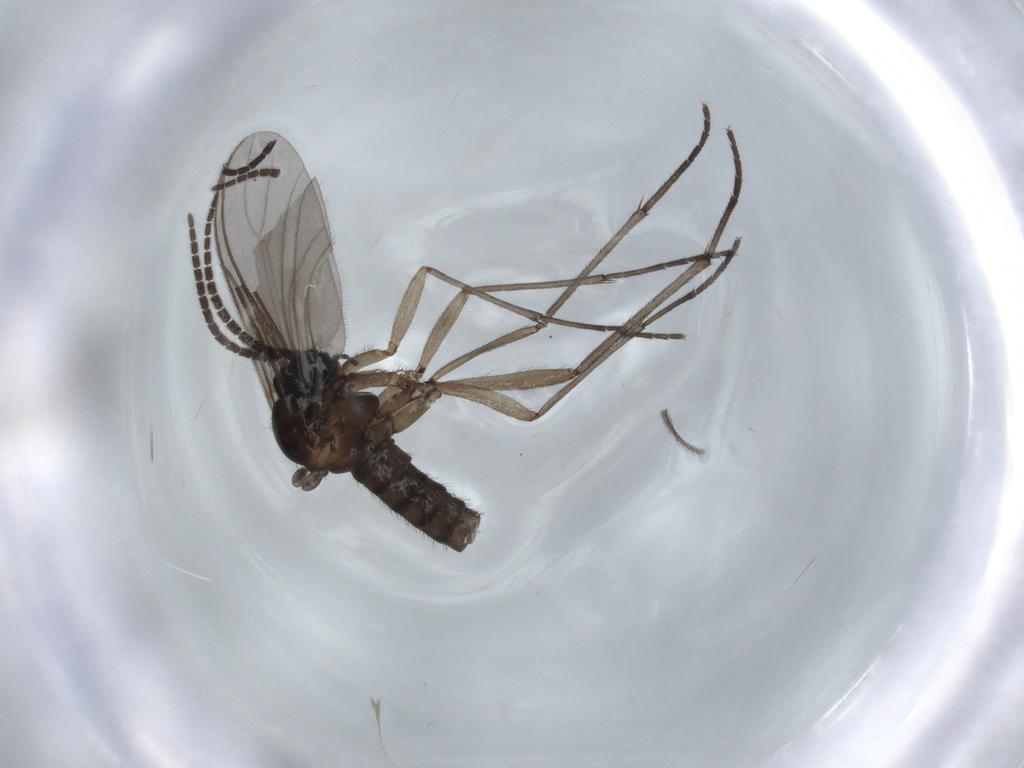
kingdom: Animalia
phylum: Arthropoda
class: Insecta
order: Diptera
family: Sciaridae
